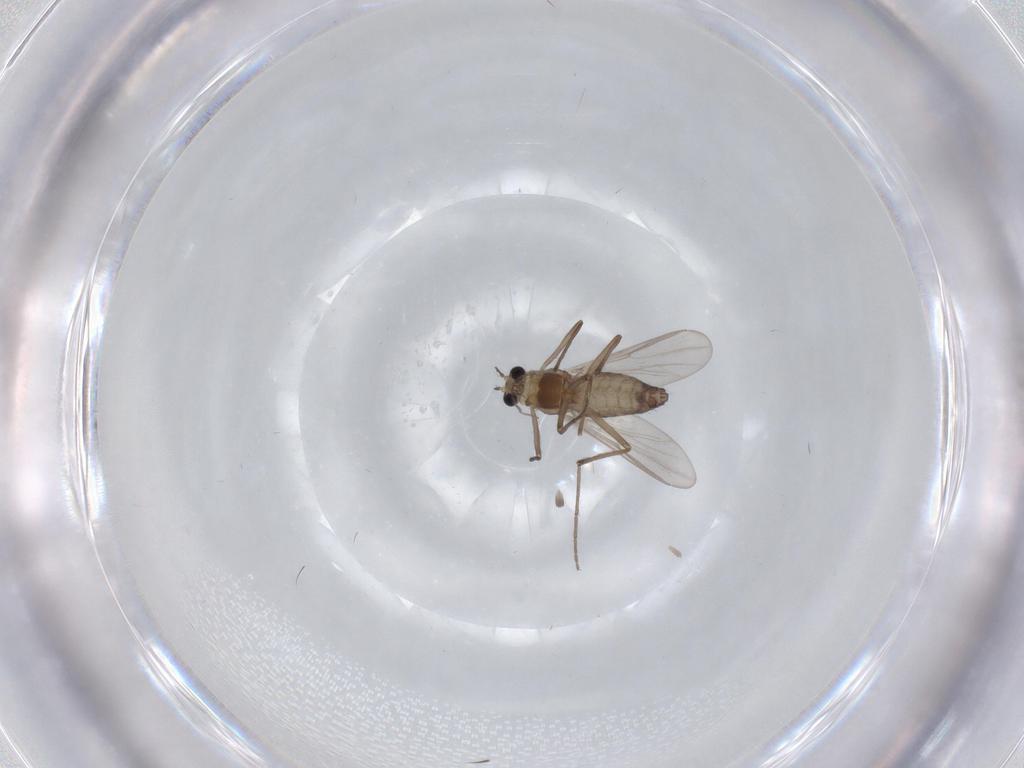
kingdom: Animalia
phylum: Arthropoda
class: Insecta
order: Diptera
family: Chironomidae
